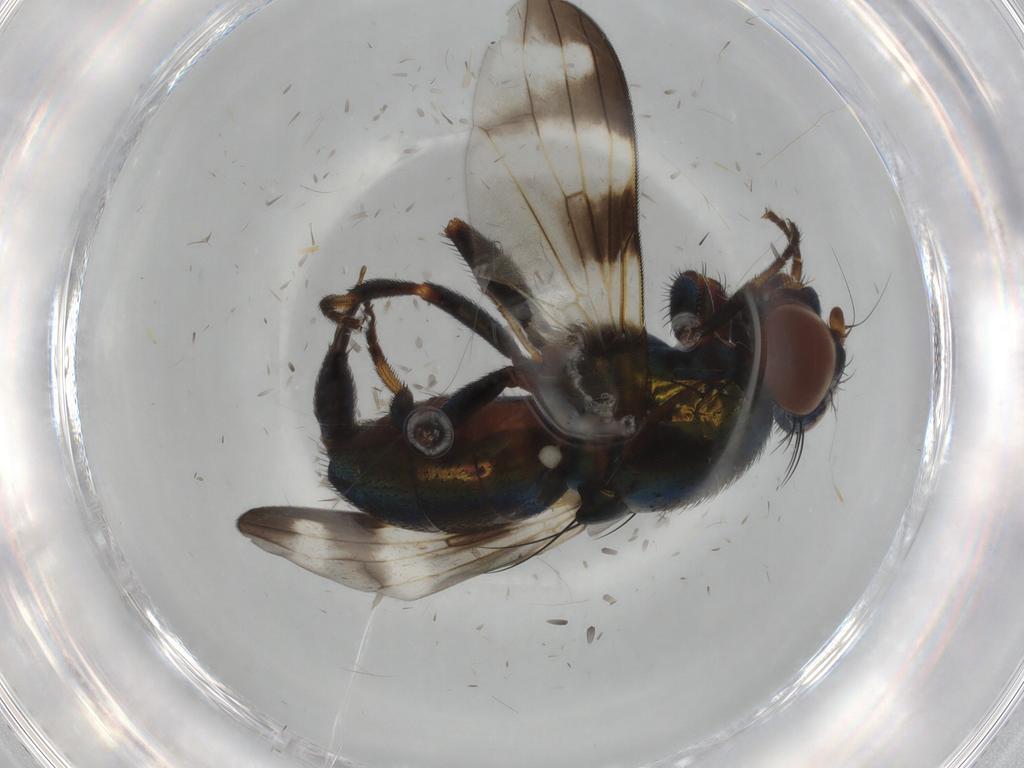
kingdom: Animalia
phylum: Arthropoda
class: Insecta
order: Diptera
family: Tachinidae
